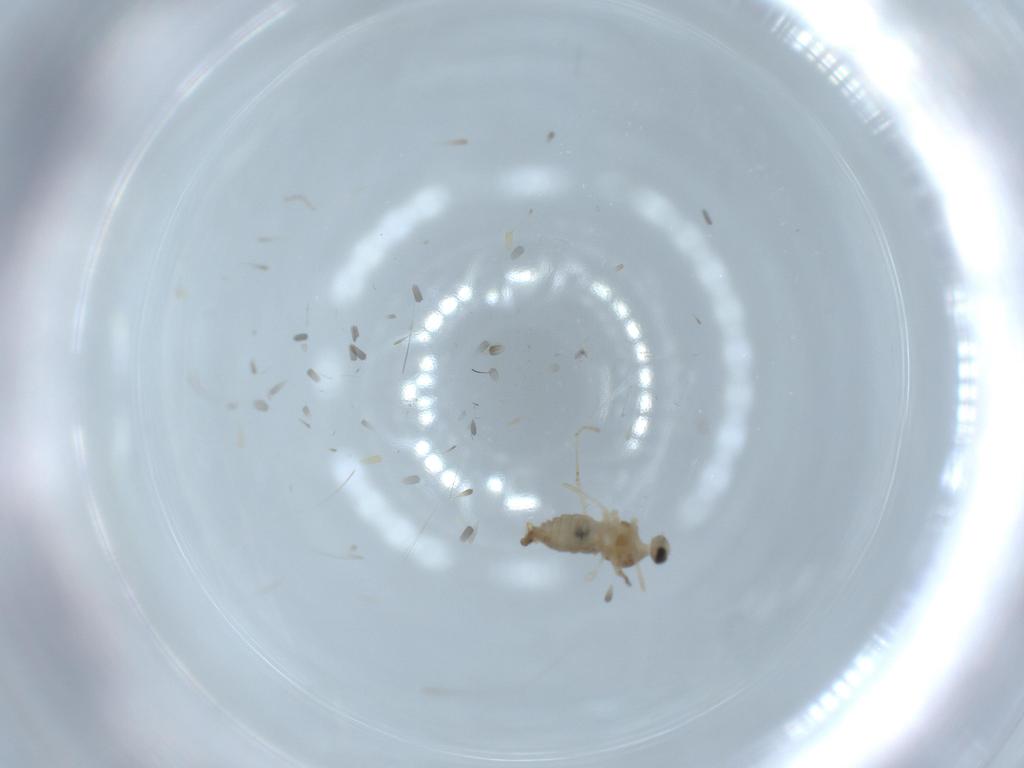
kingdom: Animalia
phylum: Arthropoda
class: Insecta
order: Diptera
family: Cecidomyiidae
